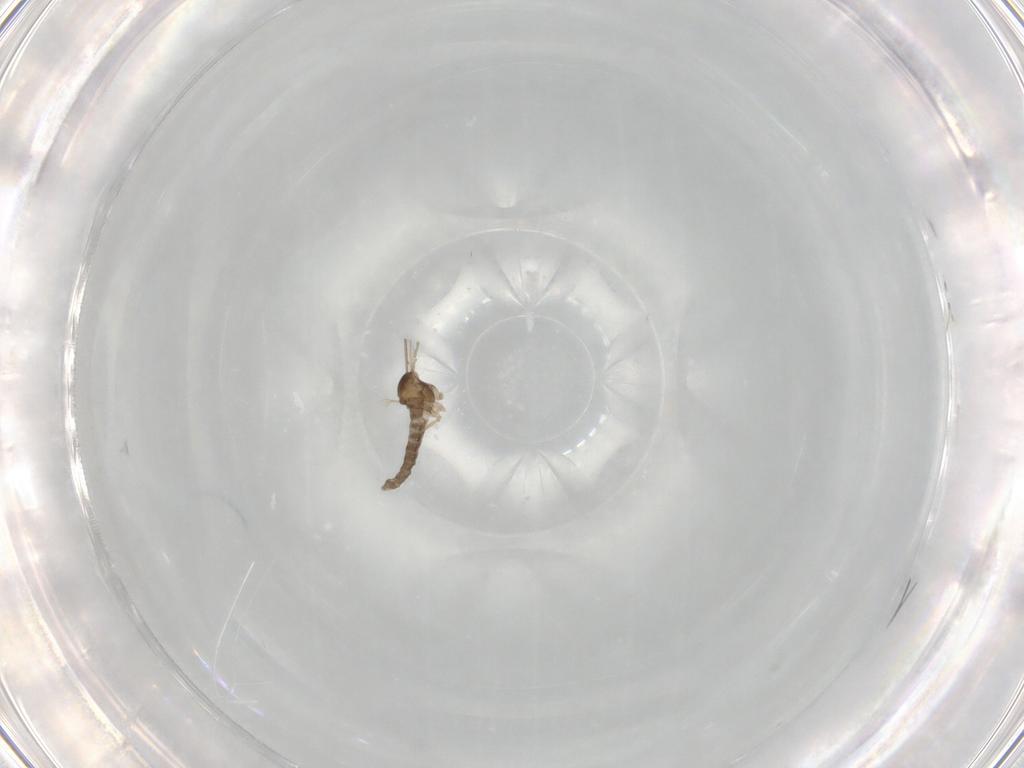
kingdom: Animalia
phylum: Arthropoda
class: Insecta
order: Diptera
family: Cecidomyiidae
